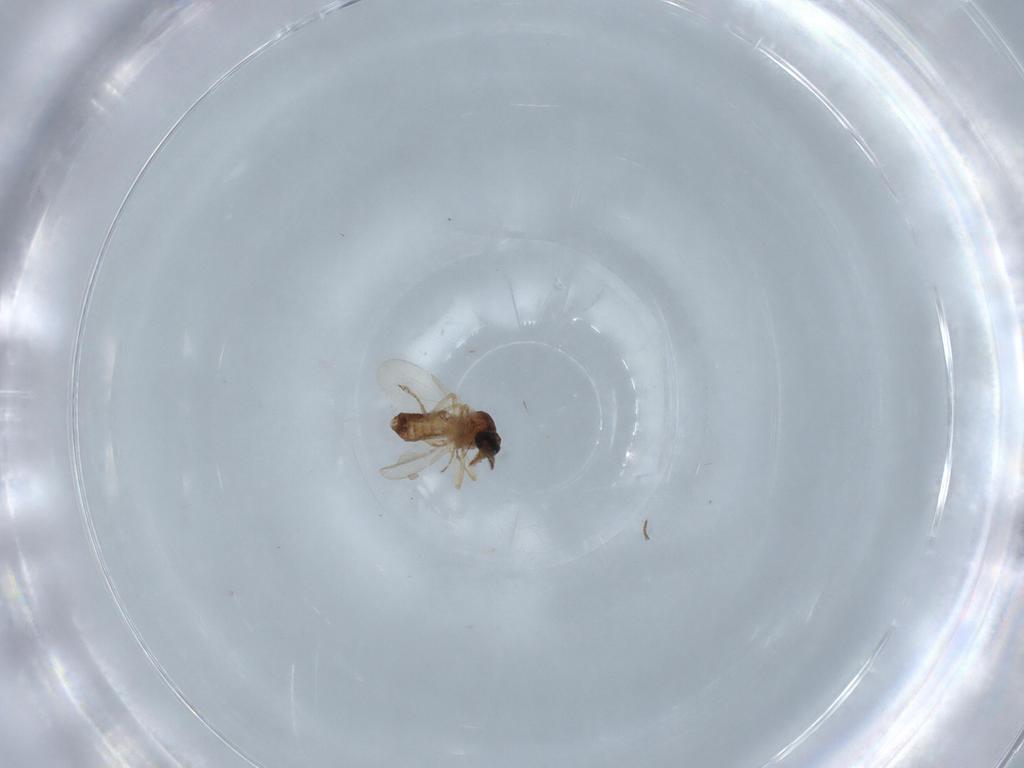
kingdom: Animalia
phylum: Arthropoda
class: Insecta
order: Diptera
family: Ceratopogonidae
